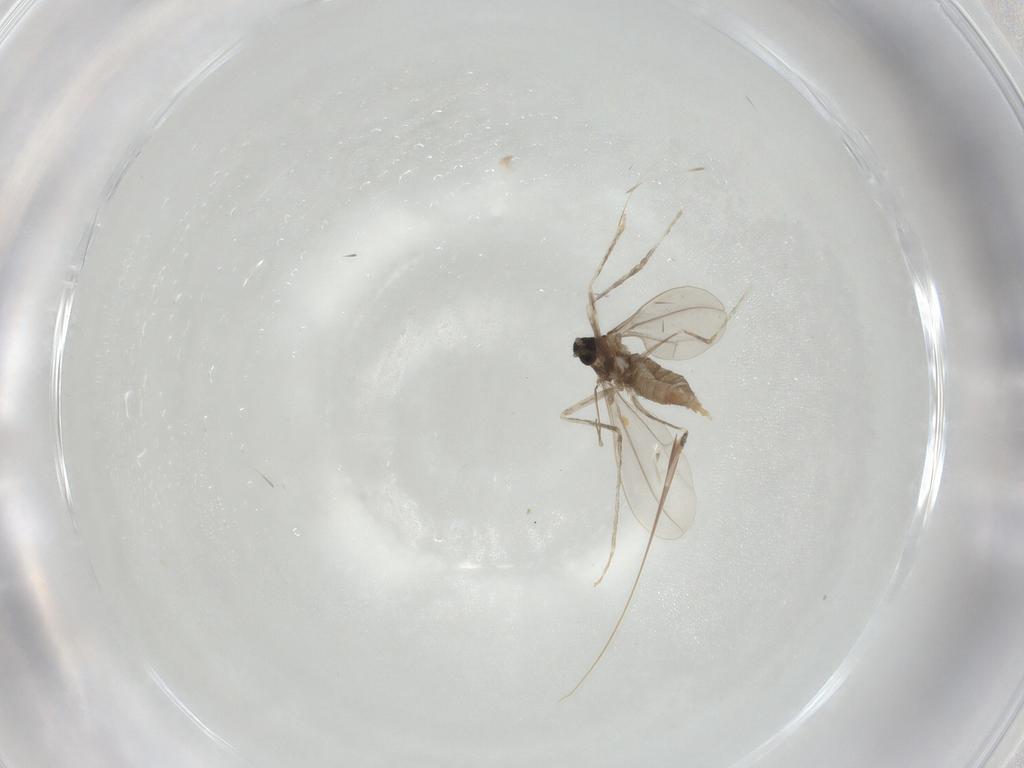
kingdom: Animalia
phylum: Arthropoda
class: Insecta
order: Diptera
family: Cecidomyiidae
